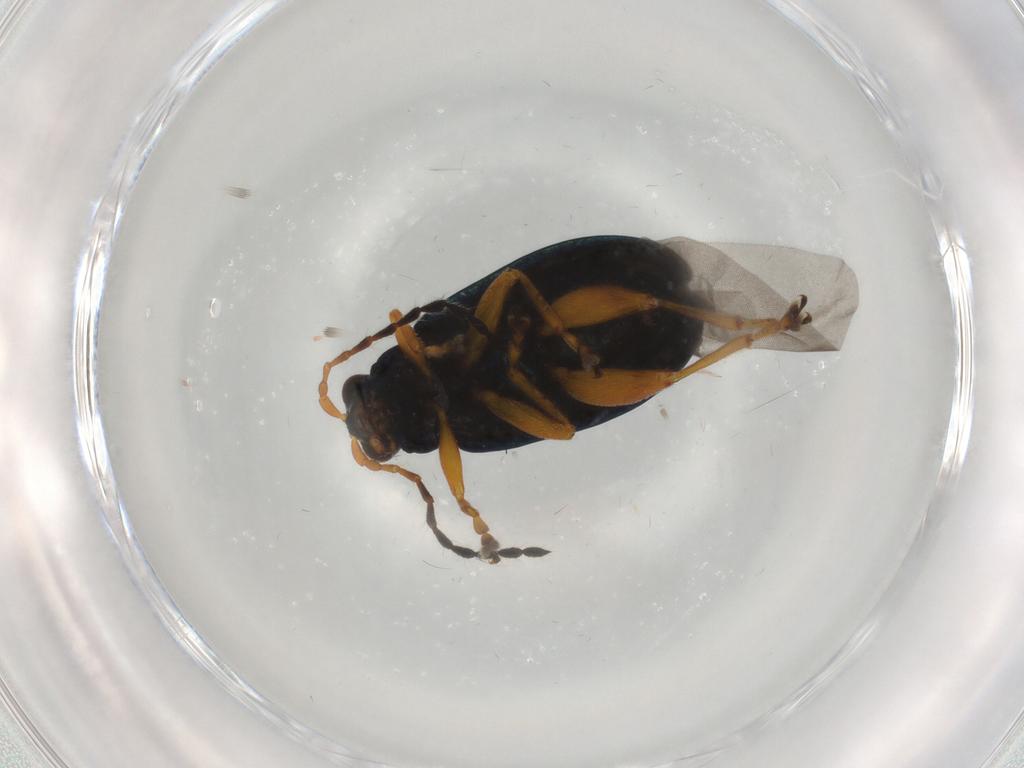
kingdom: Animalia
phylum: Arthropoda
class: Insecta
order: Coleoptera
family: Chrysomelidae
